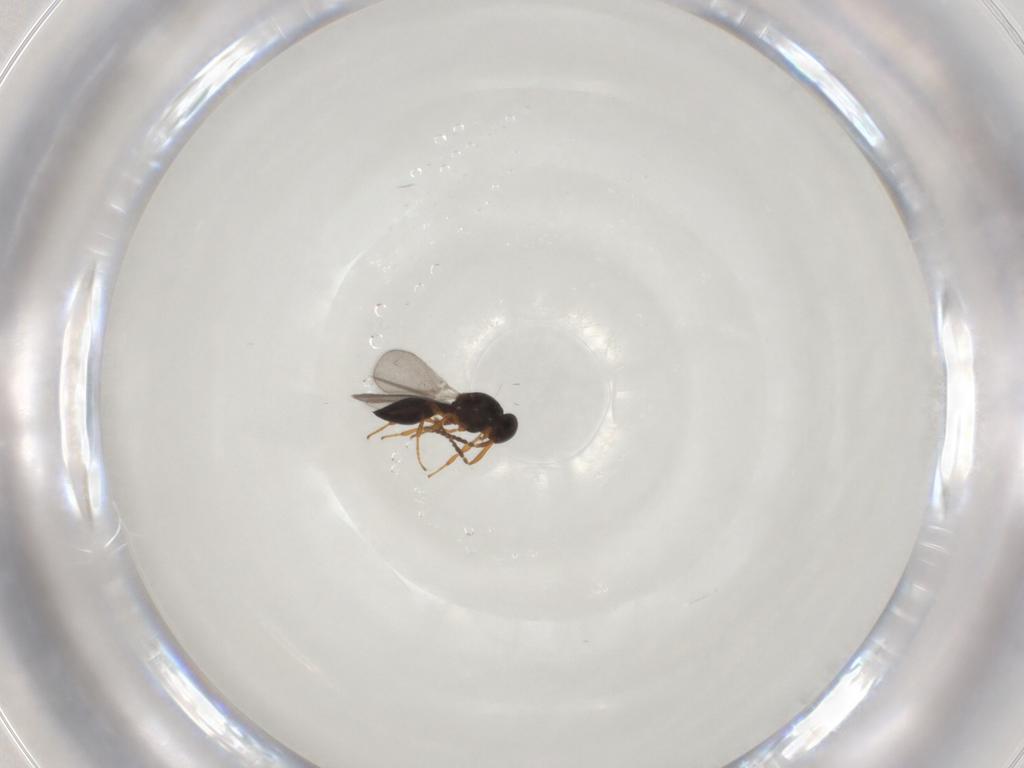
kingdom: Animalia
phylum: Arthropoda
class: Insecta
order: Hymenoptera
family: Platygastridae
